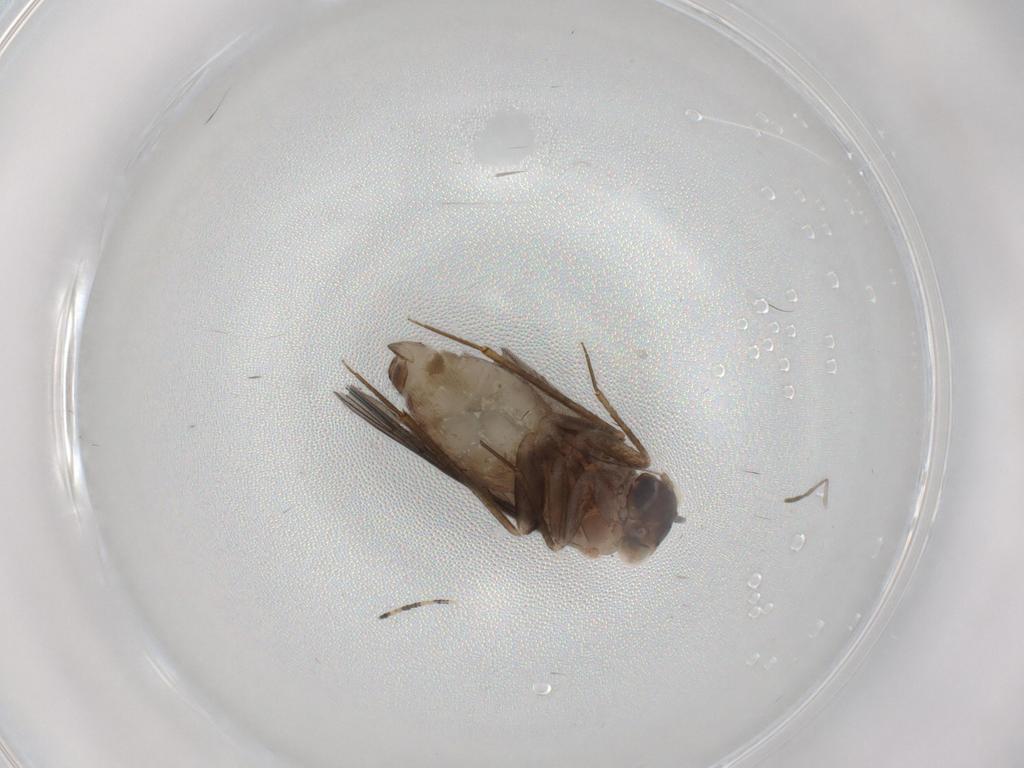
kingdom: Animalia
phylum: Arthropoda
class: Insecta
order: Psocodea
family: Lepidopsocidae
